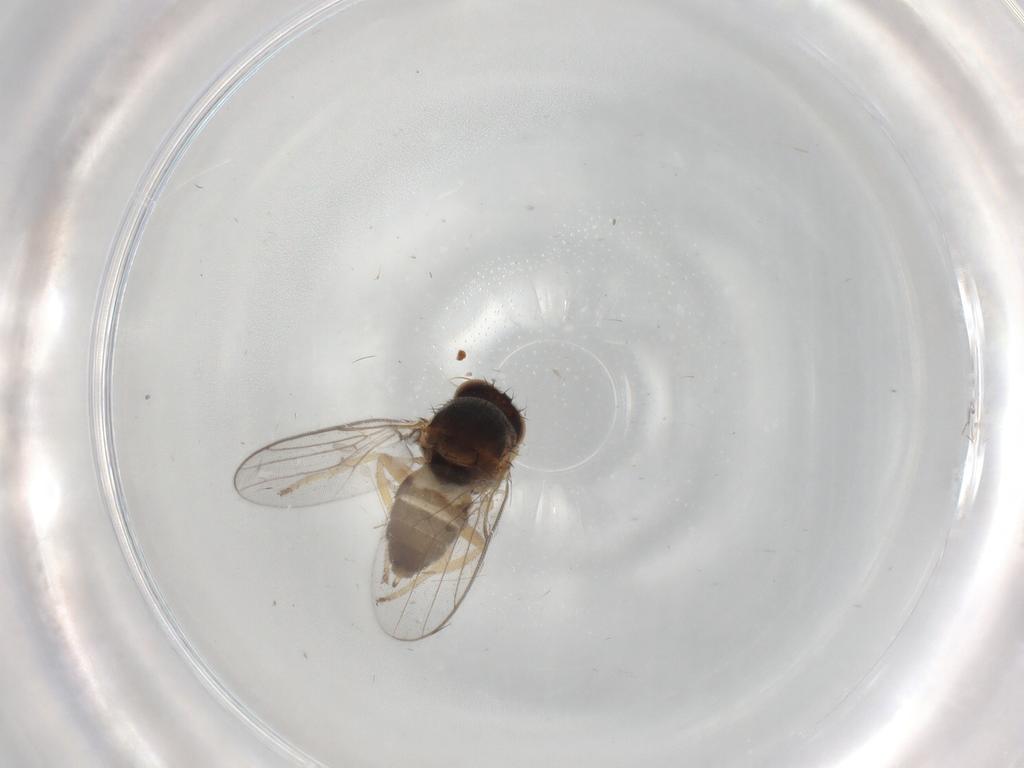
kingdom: Animalia
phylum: Arthropoda
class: Insecta
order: Diptera
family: Chloropidae
